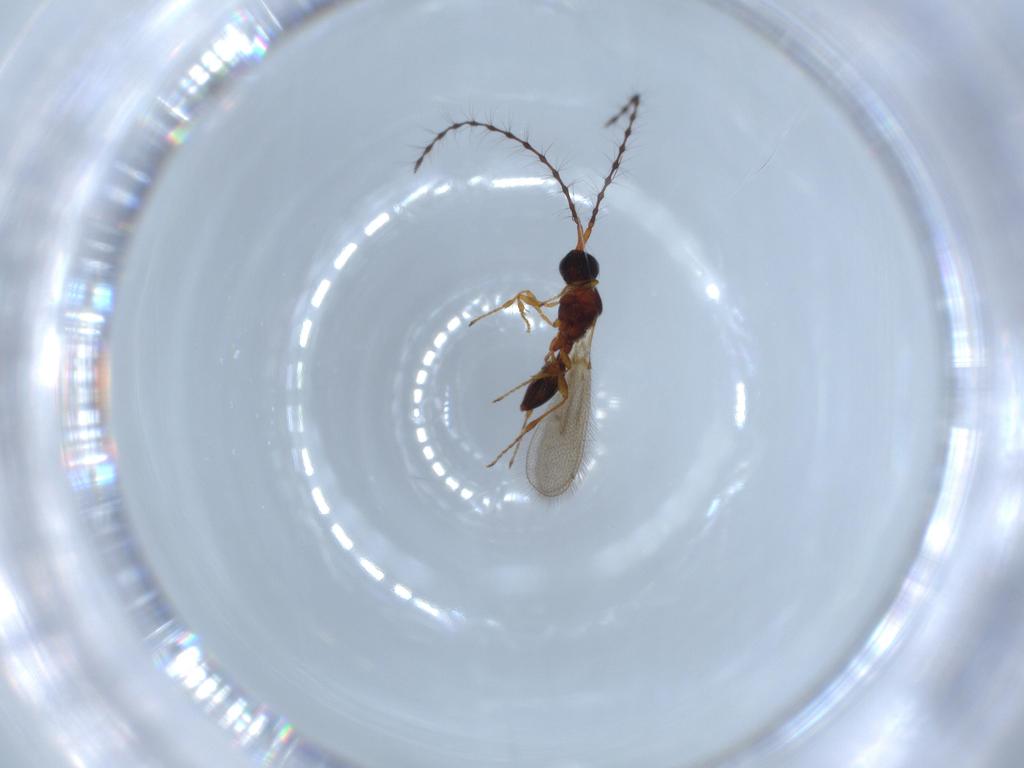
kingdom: Animalia
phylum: Arthropoda
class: Insecta
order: Hymenoptera
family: Diapriidae
